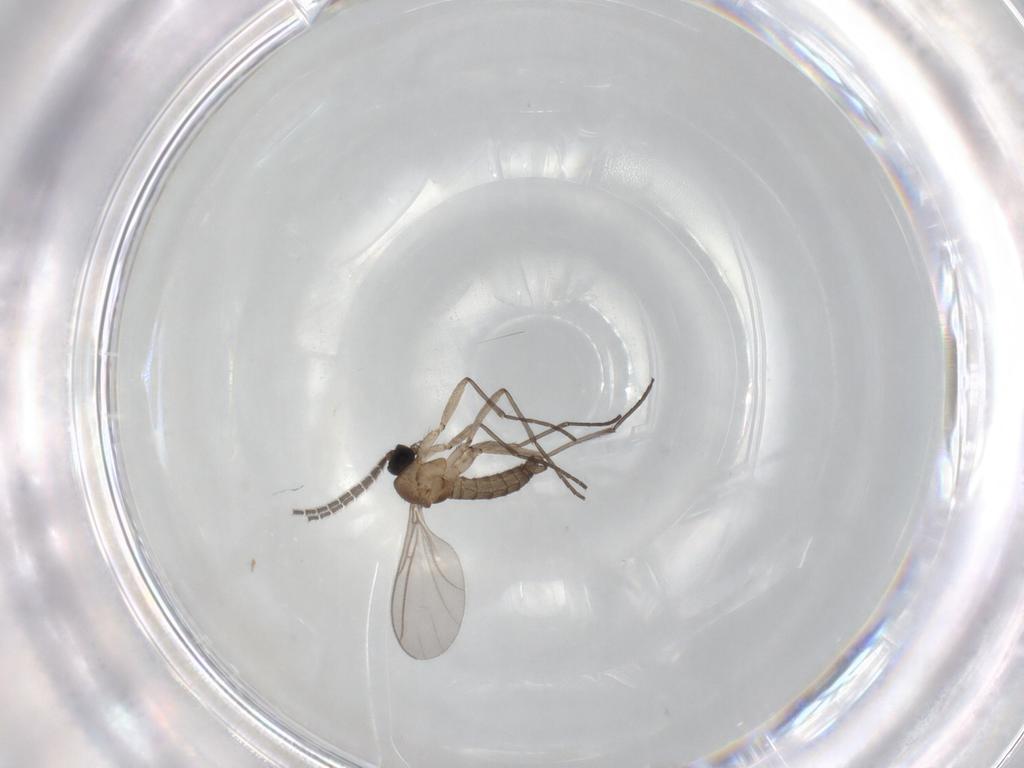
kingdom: Animalia
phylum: Arthropoda
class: Insecta
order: Diptera
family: Sciaridae
